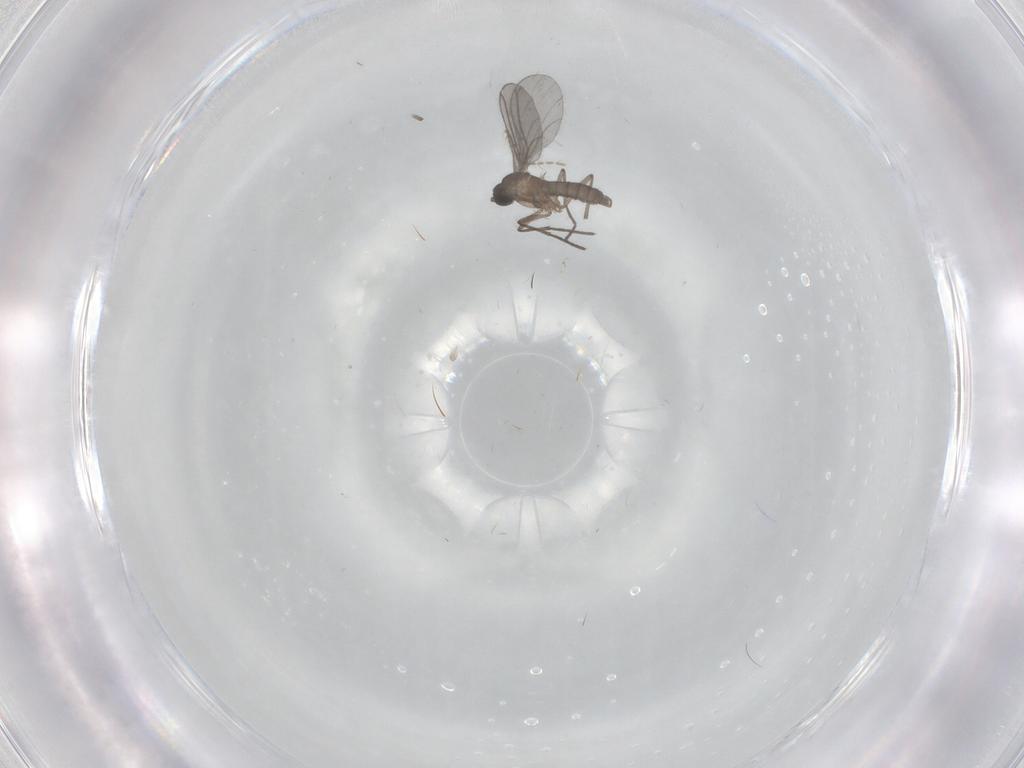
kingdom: Animalia
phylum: Arthropoda
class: Insecta
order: Diptera
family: Ceratopogonidae
